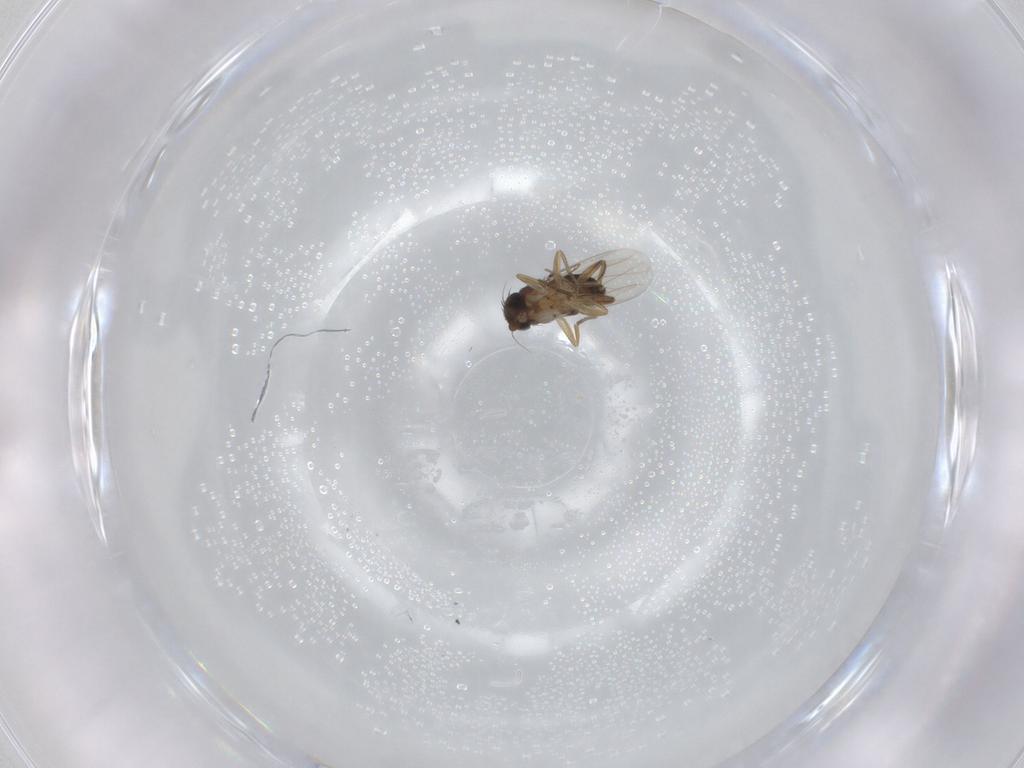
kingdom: Animalia
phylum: Arthropoda
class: Insecta
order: Diptera
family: Phoridae
